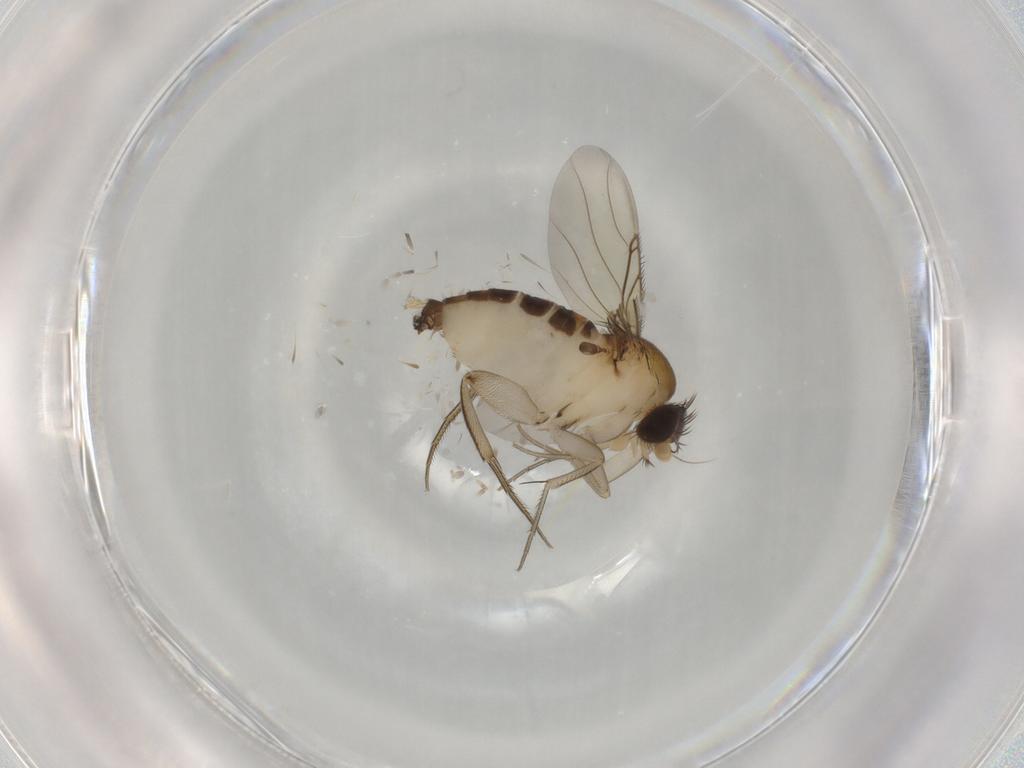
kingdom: Animalia
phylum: Arthropoda
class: Insecta
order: Diptera
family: Phoridae
